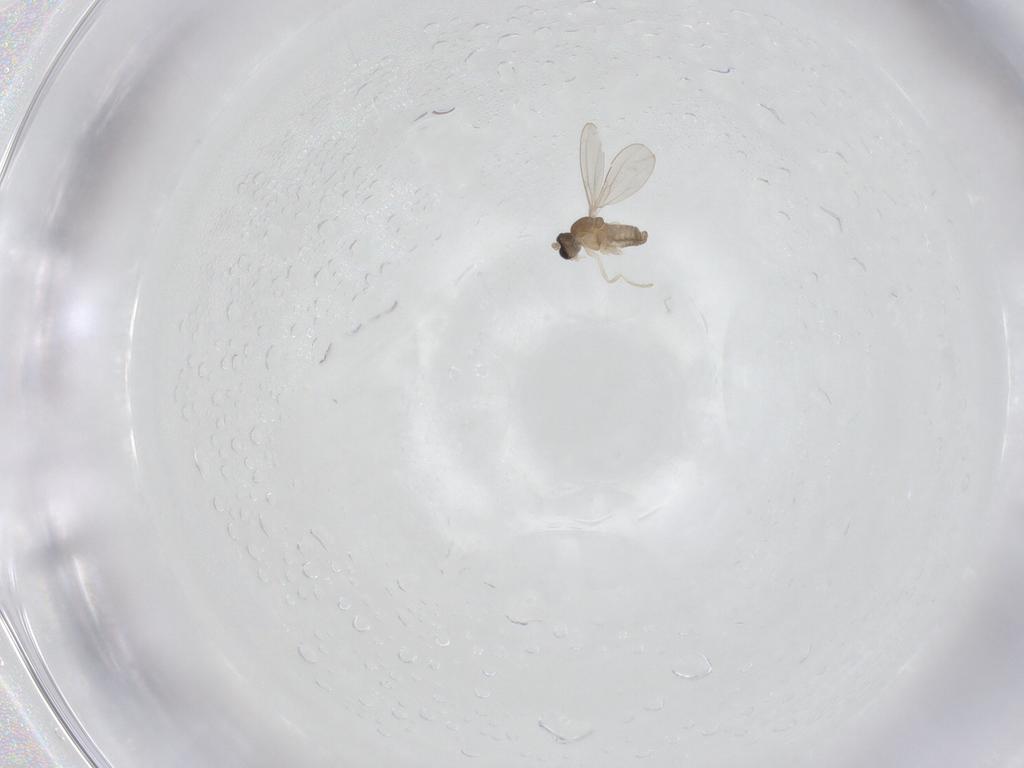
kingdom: Animalia
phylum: Arthropoda
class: Insecta
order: Diptera
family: Cecidomyiidae
